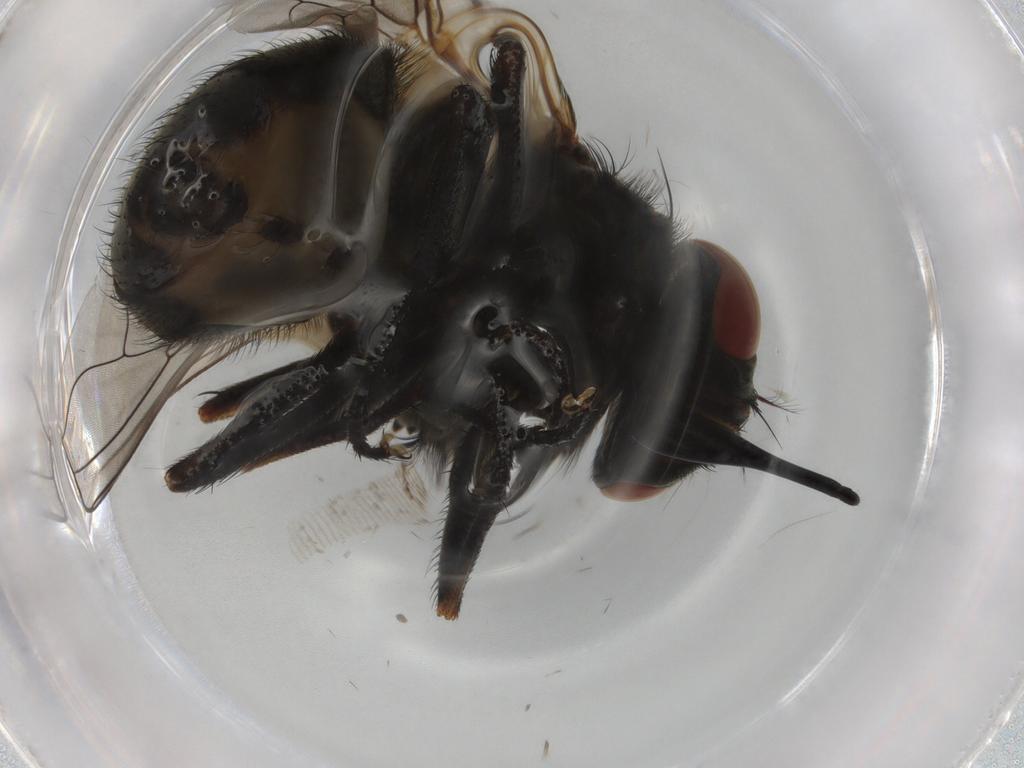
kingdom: Animalia
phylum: Arthropoda
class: Insecta
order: Diptera
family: Muscidae
